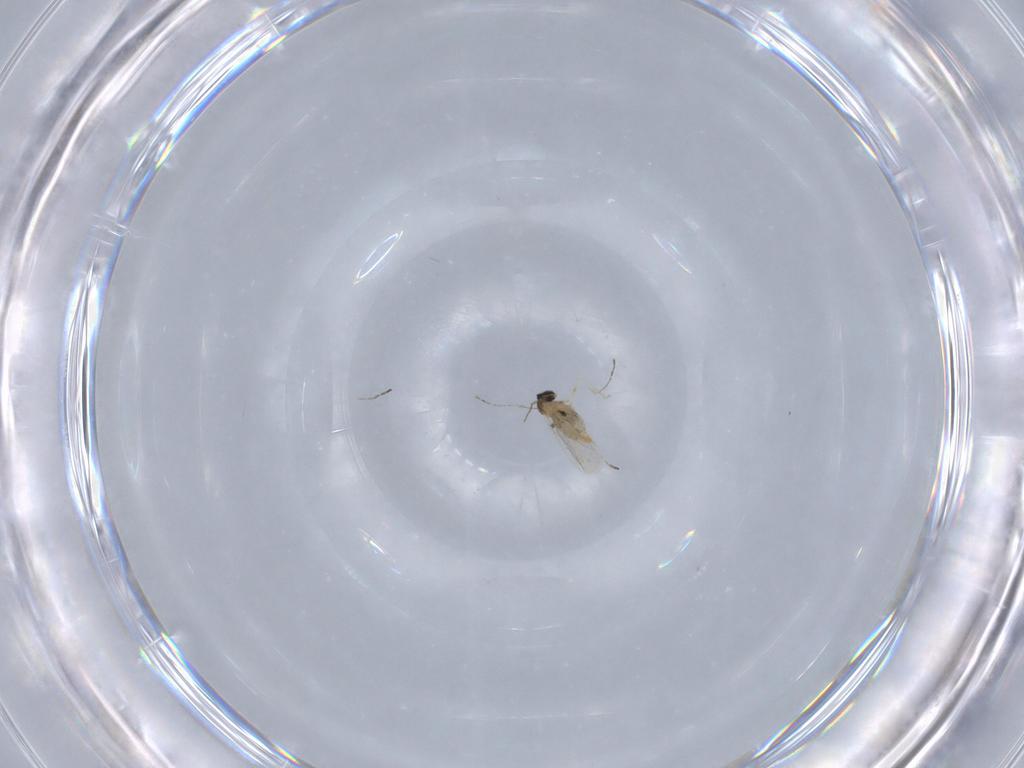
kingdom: Animalia
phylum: Arthropoda
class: Insecta
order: Diptera
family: Cecidomyiidae
